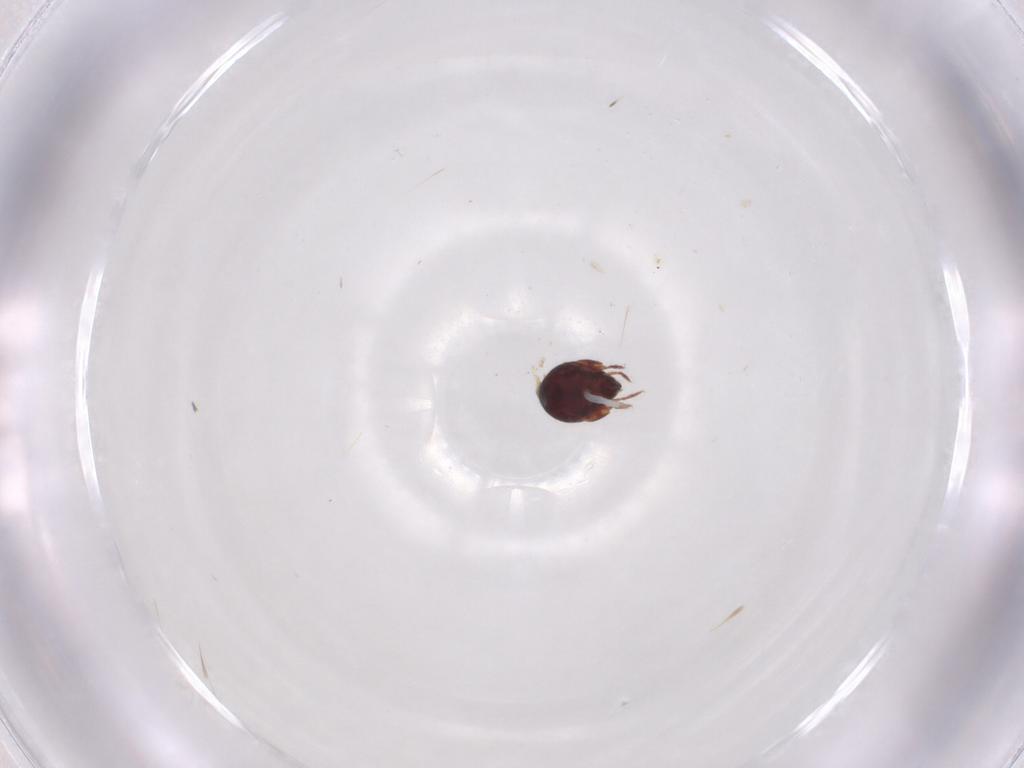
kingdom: Animalia
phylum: Arthropoda
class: Arachnida
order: Sarcoptiformes
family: Humerobatidae
